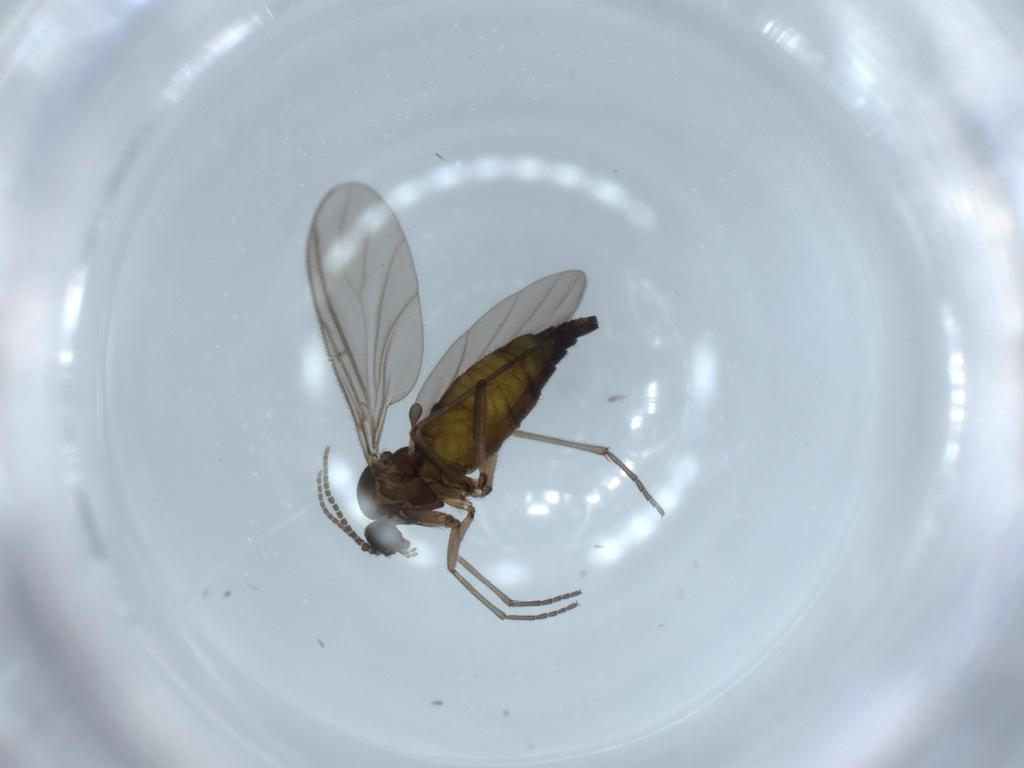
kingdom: Animalia
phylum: Arthropoda
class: Insecta
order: Diptera
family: Sciaridae
